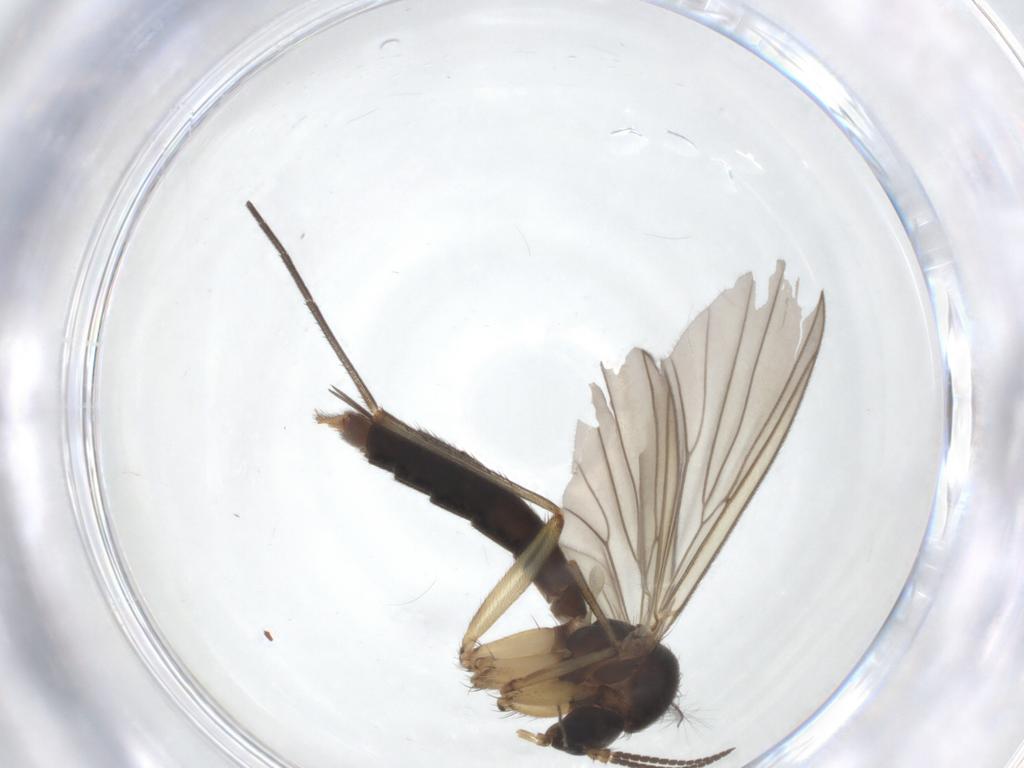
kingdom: Animalia
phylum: Arthropoda
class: Insecta
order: Diptera
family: Mycetophilidae
